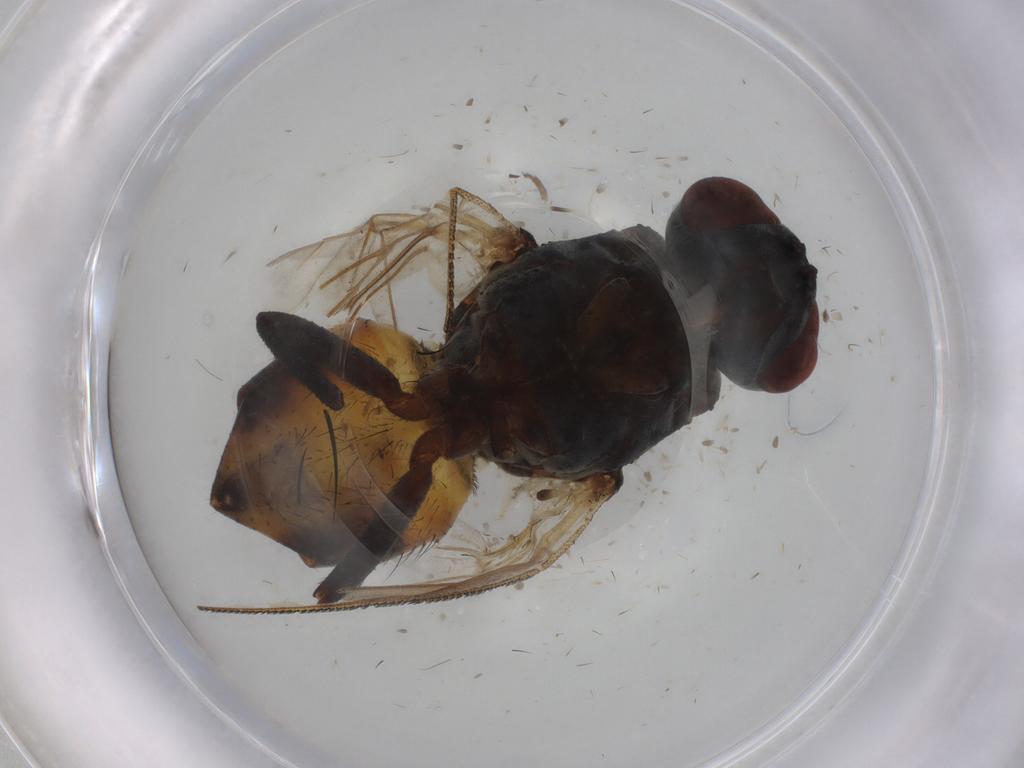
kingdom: Animalia
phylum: Arthropoda
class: Insecta
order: Diptera
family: Muscidae
